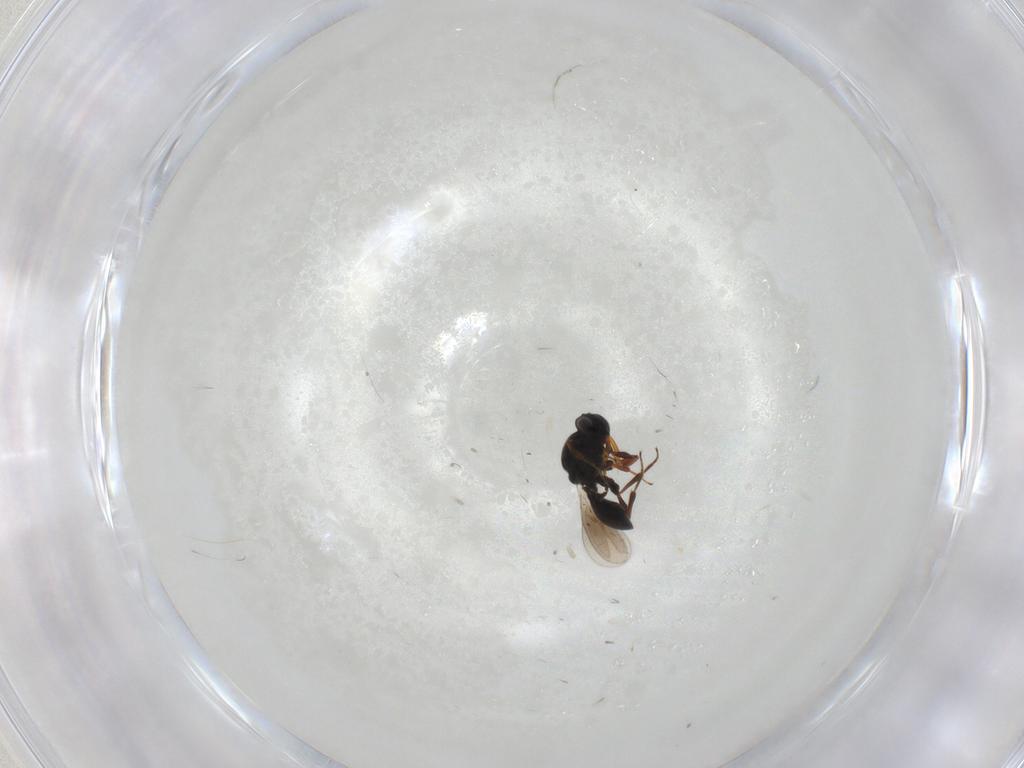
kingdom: Animalia
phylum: Arthropoda
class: Insecta
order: Hymenoptera
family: Platygastridae
